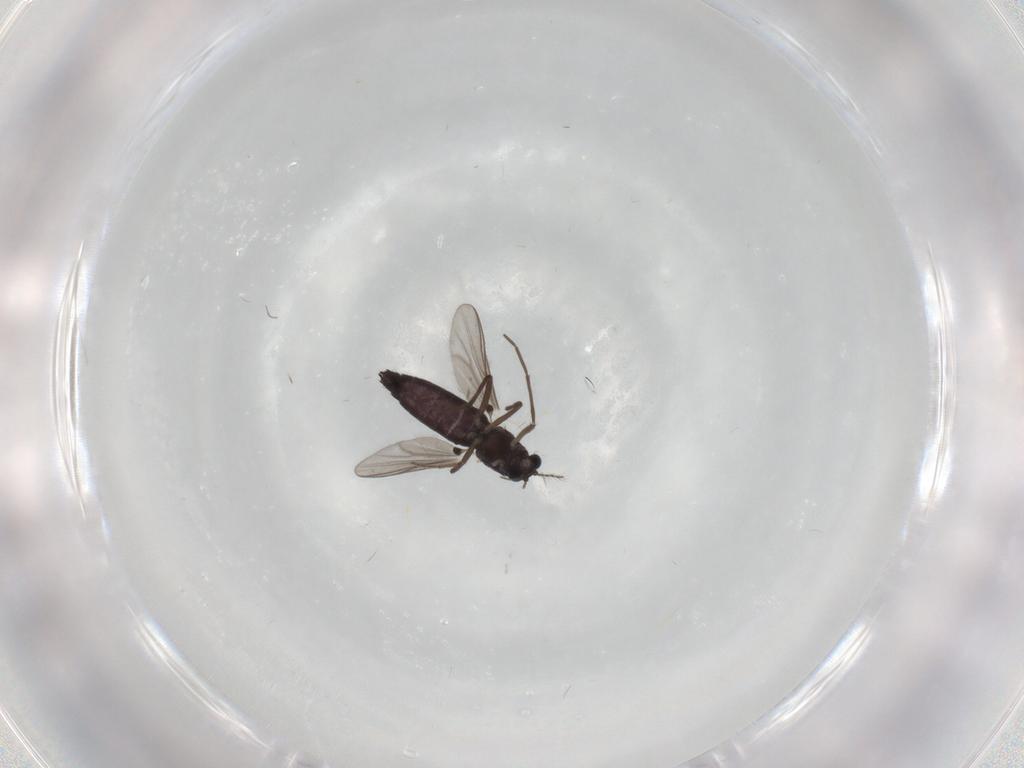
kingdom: Animalia
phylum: Arthropoda
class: Insecta
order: Diptera
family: Chironomidae
